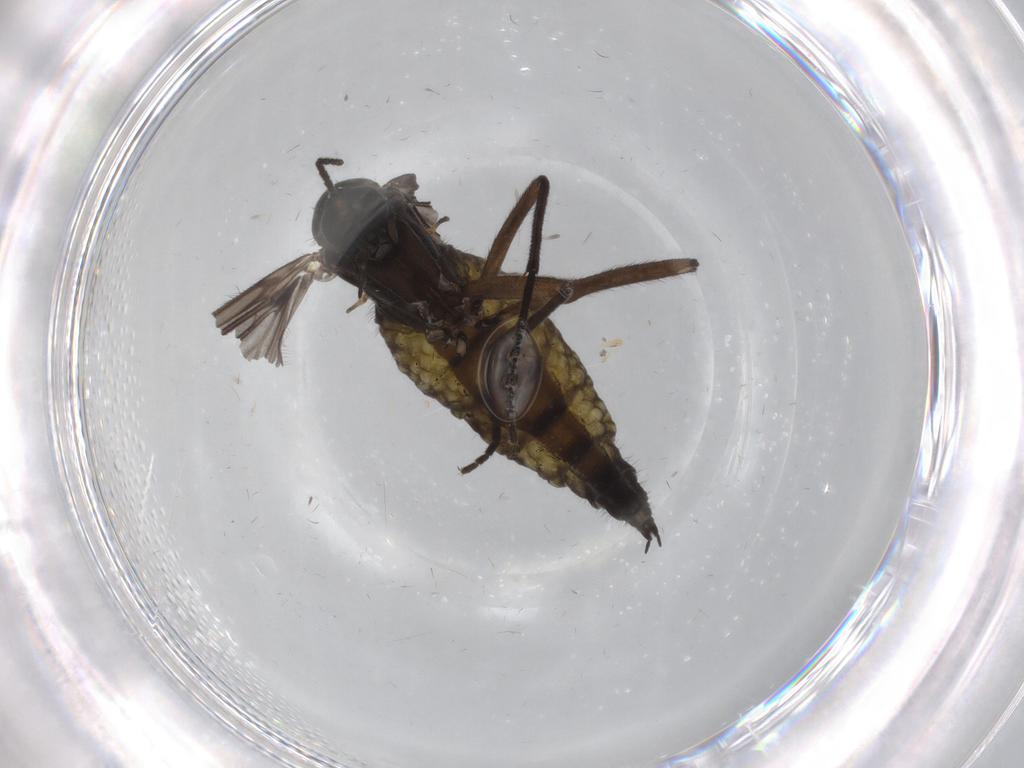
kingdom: Animalia
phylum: Arthropoda
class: Insecta
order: Diptera
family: Sciaridae
